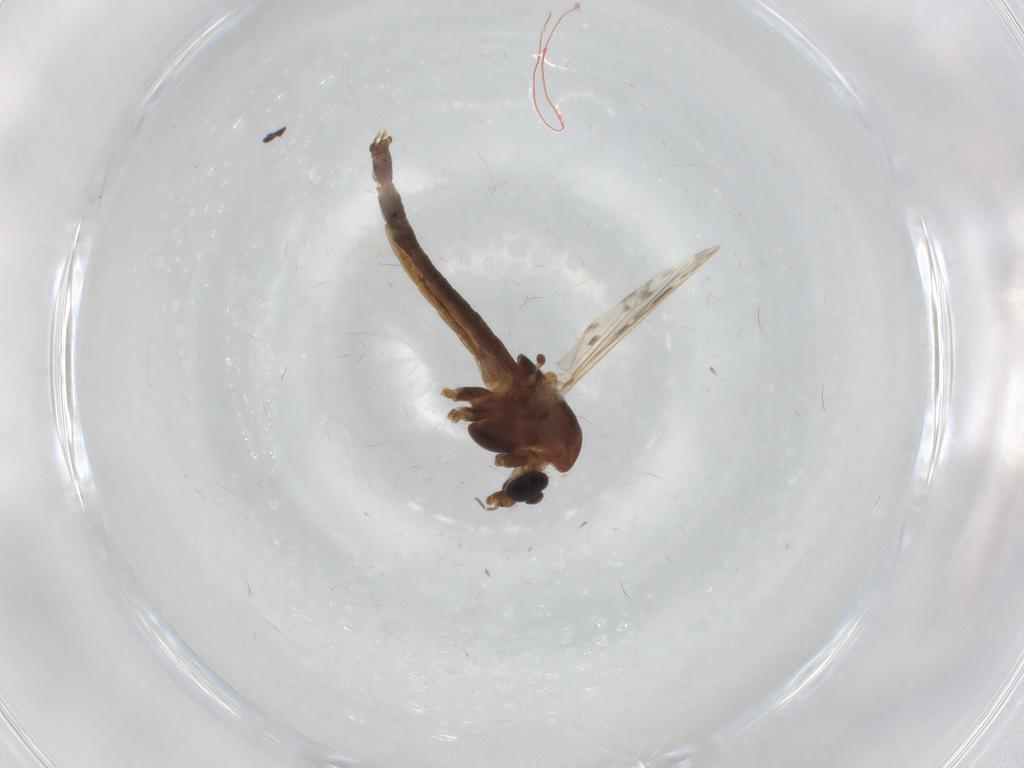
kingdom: Animalia
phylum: Arthropoda
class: Insecta
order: Diptera
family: Chironomidae
